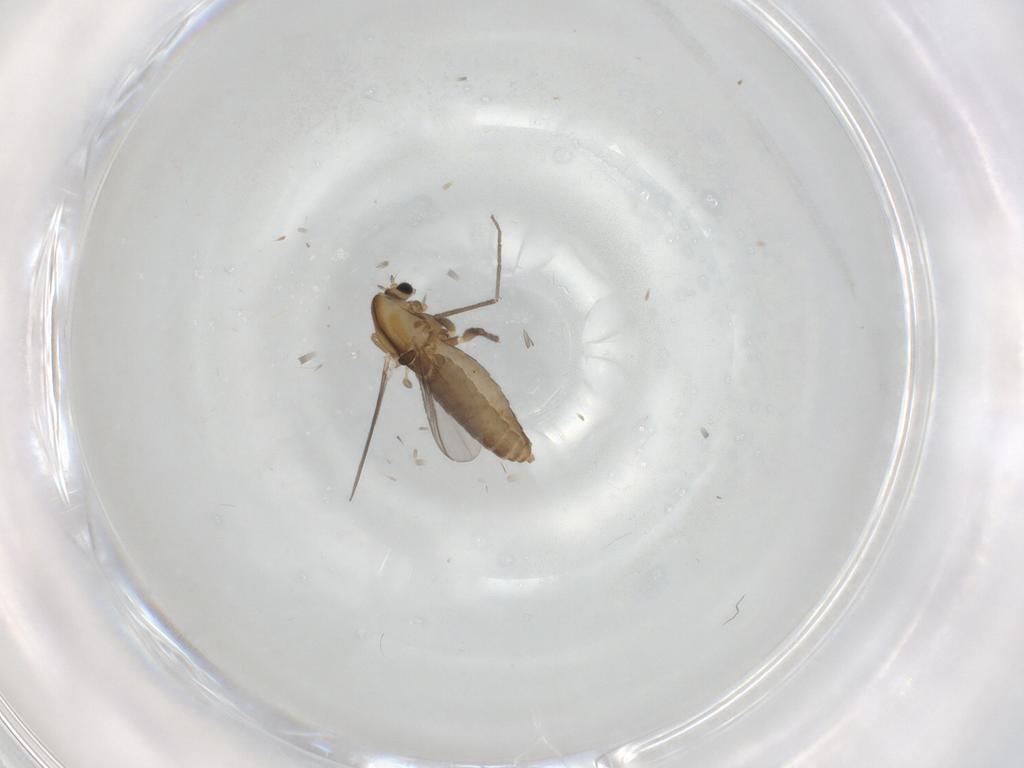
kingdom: Animalia
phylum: Arthropoda
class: Insecta
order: Diptera
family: Chironomidae
